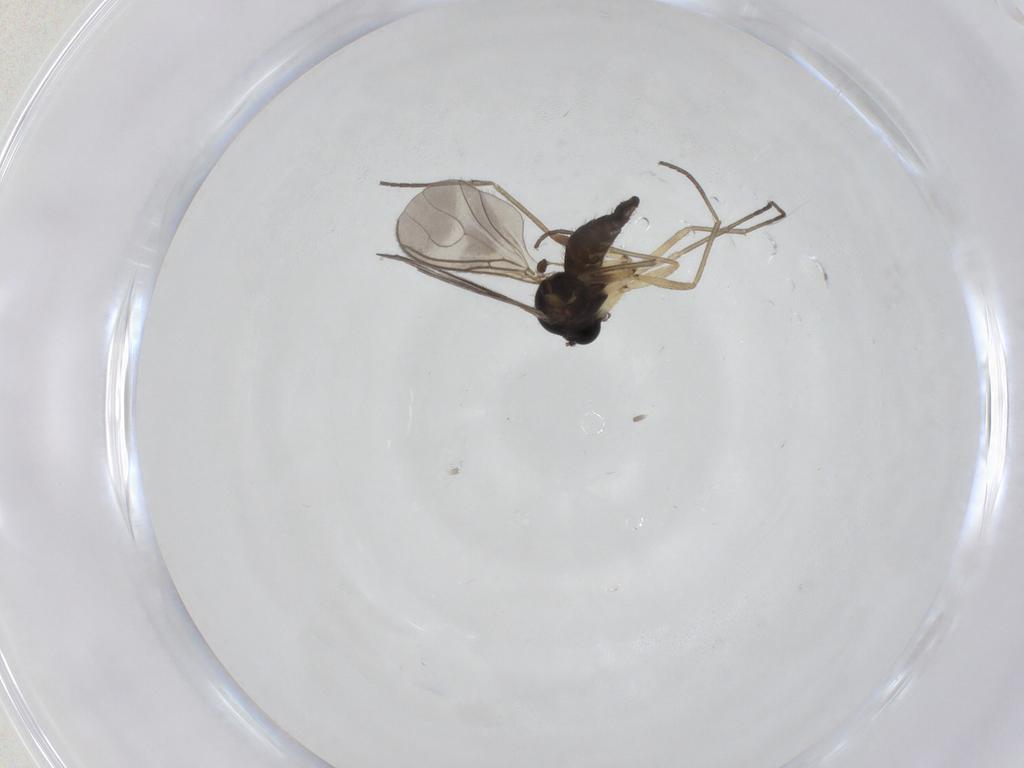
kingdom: Animalia
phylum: Arthropoda
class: Insecta
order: Diptera
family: Sciaridae
